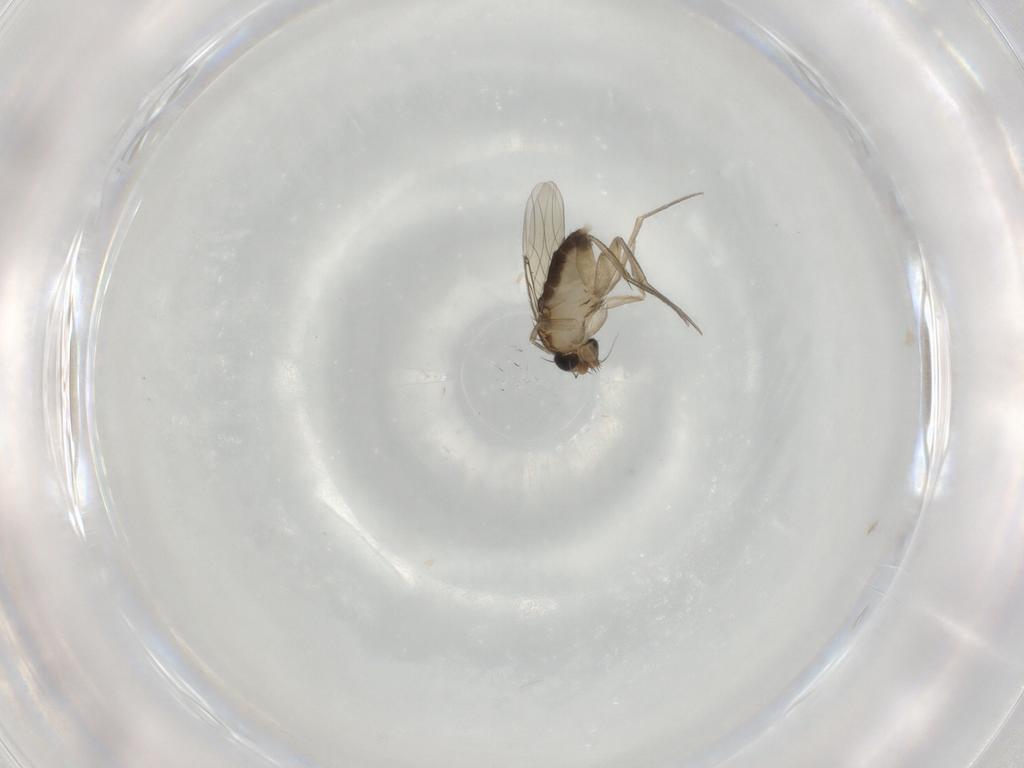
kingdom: Animalia
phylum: Arthropoda
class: Insecta
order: Diptera
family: Phoridae
